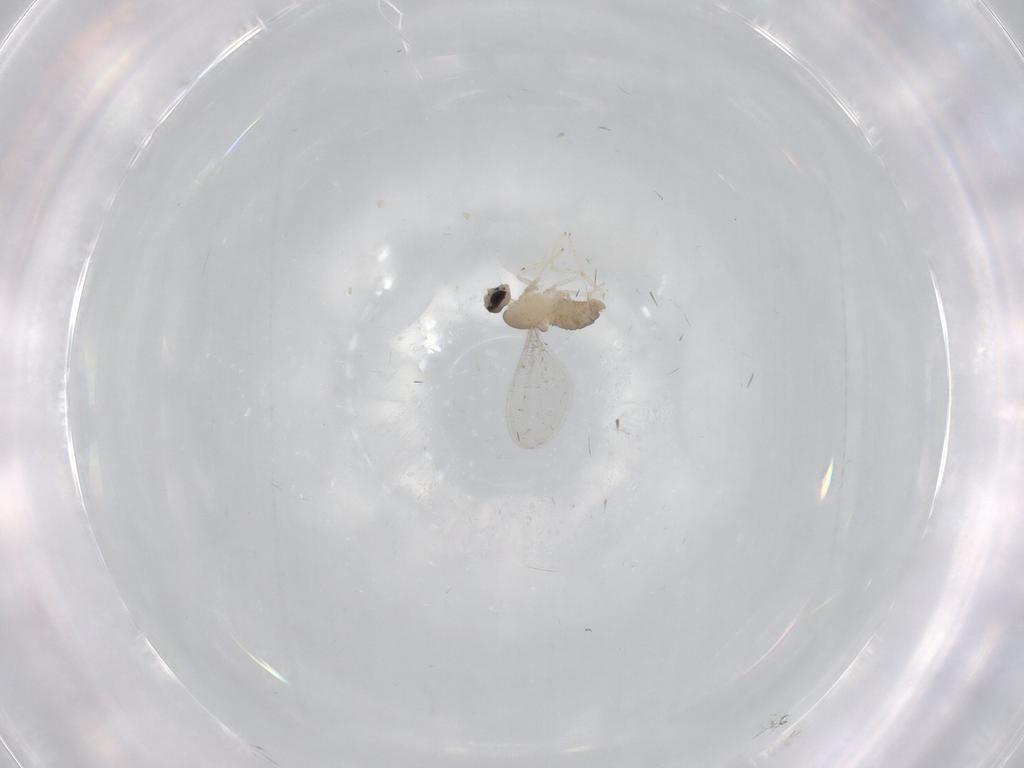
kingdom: Animalia
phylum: Arthropoda
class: Insecta
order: Diptera
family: Cecidomyiidae
